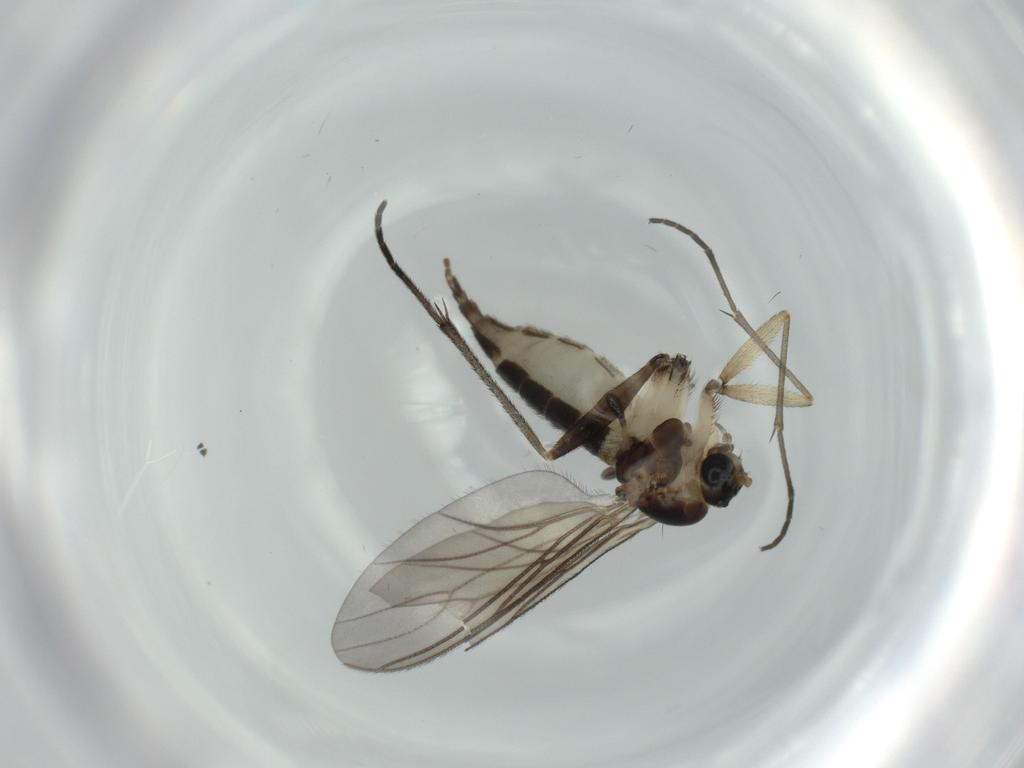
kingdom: Animalia
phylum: Arthropoda
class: Insecta
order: Diptera
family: Sciaridae
